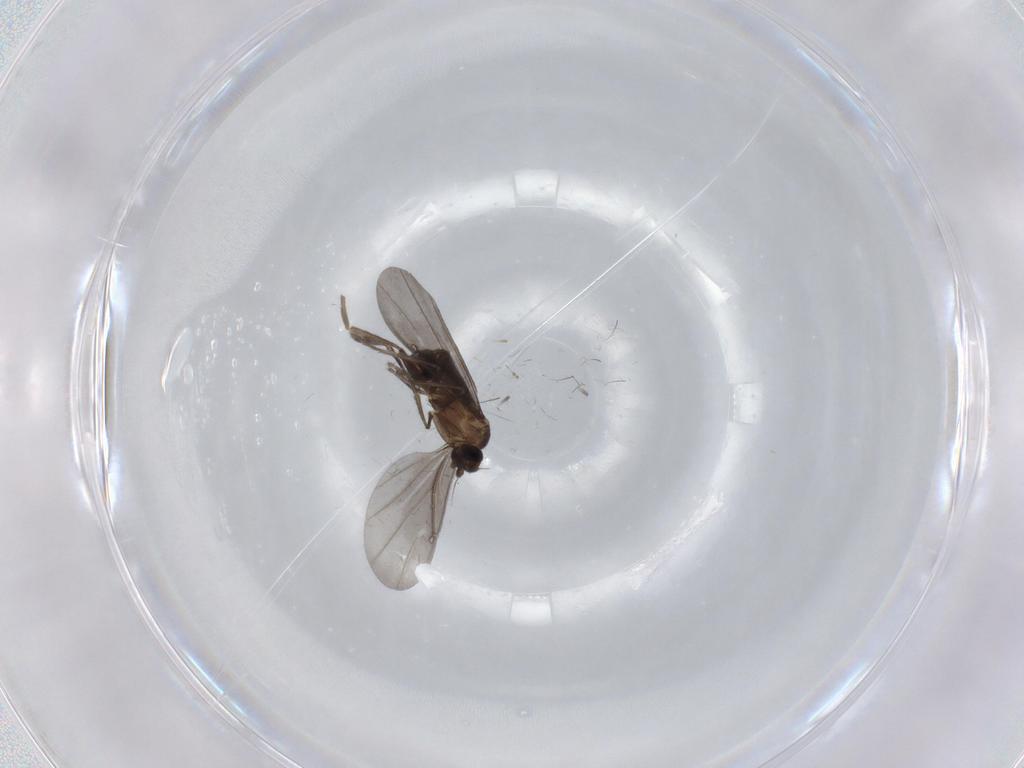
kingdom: Animalia
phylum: Arthropoda
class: Insecta
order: Diptera
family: Phoridae
